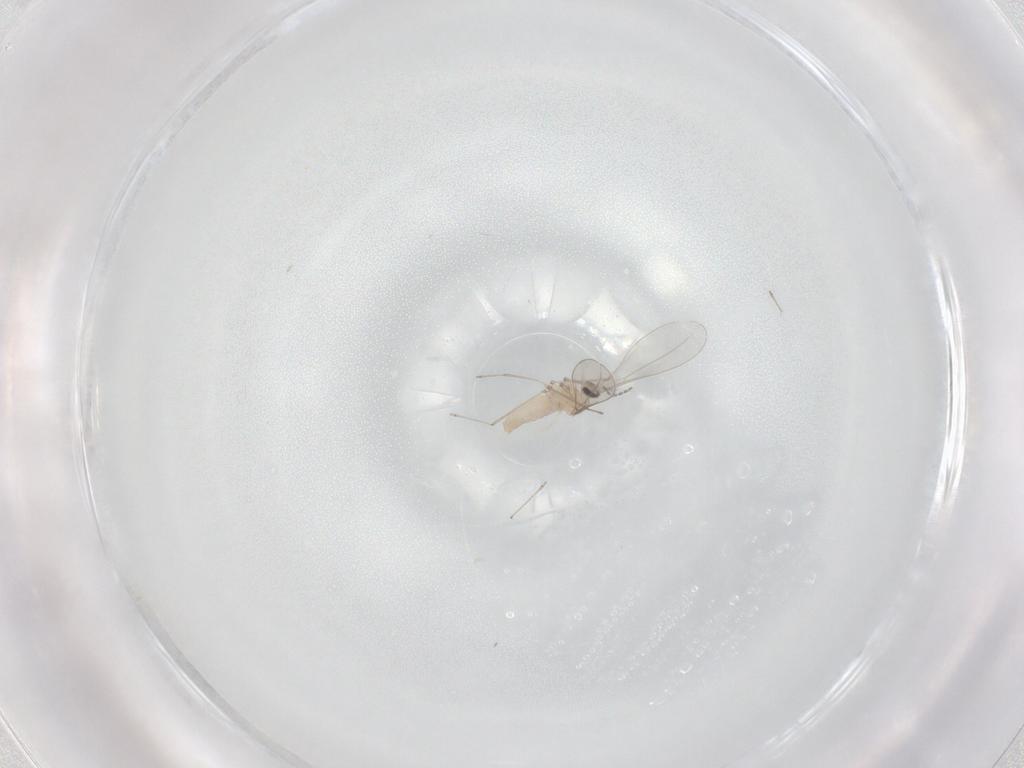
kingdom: Animalia
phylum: Arthropoda
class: Insecta
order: Diptera
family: Cecidomyiidae
